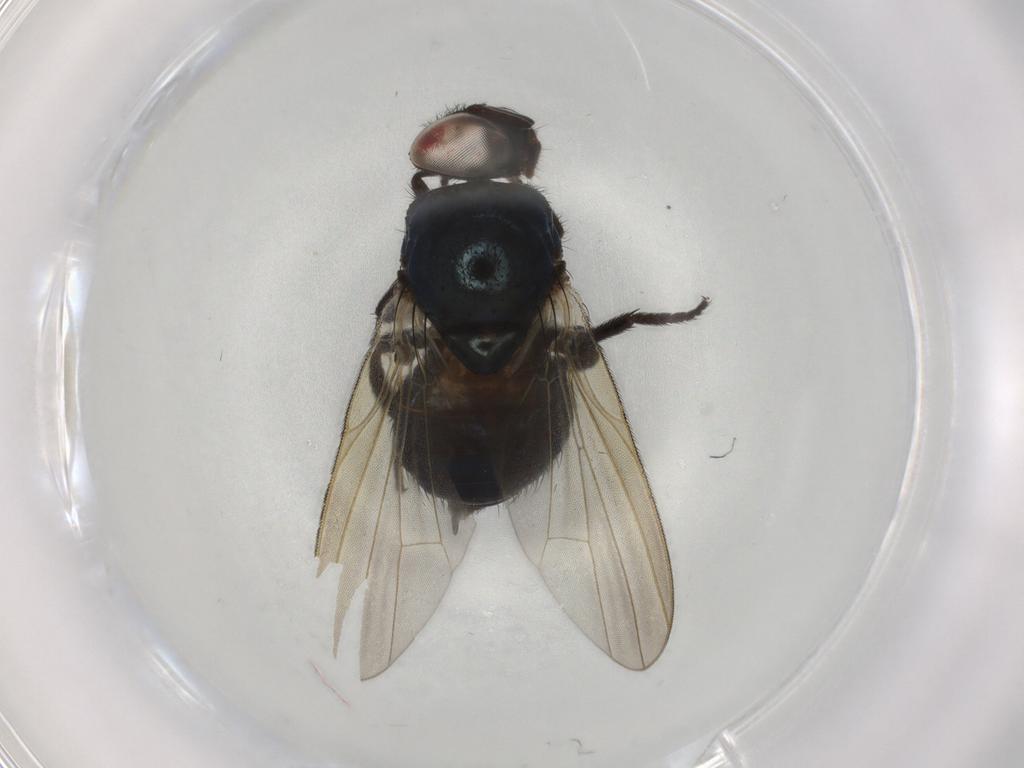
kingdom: Animalia
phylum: Arthropoda
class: Insecta
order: Diptera
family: Lonchaeidae
